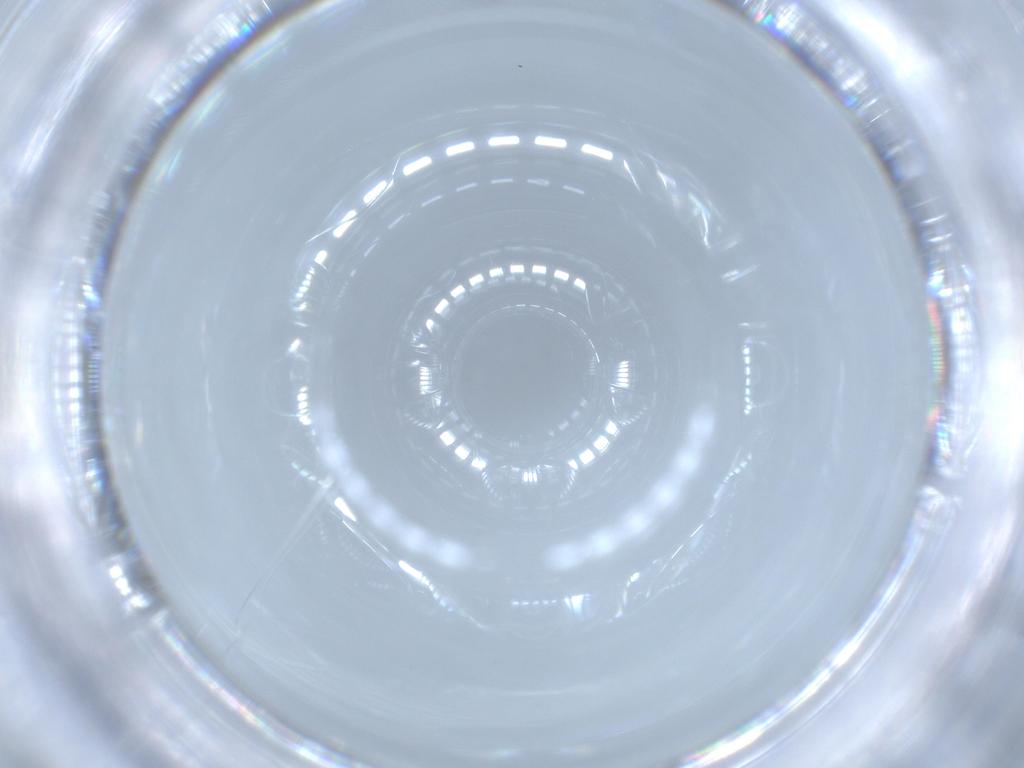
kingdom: Animalia
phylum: Arthropoda
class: Insecta
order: Diptera
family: Cecidomyiidae
